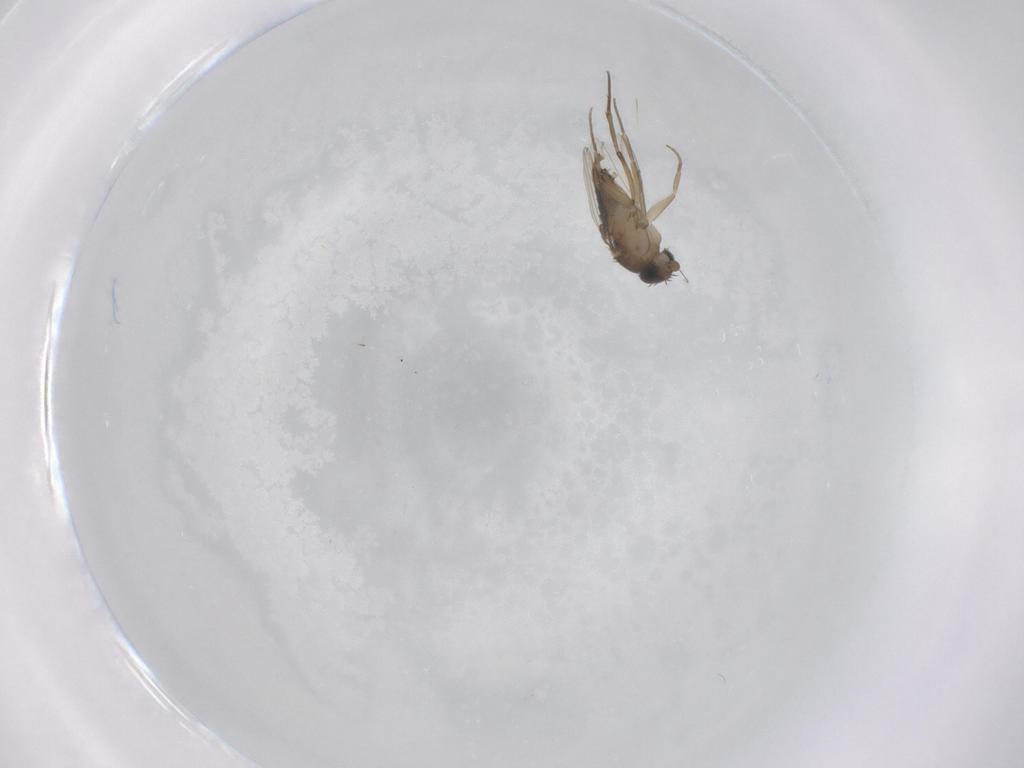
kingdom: Animalia
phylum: Arthropoda
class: Insecta
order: Diptera
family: Phoridae
